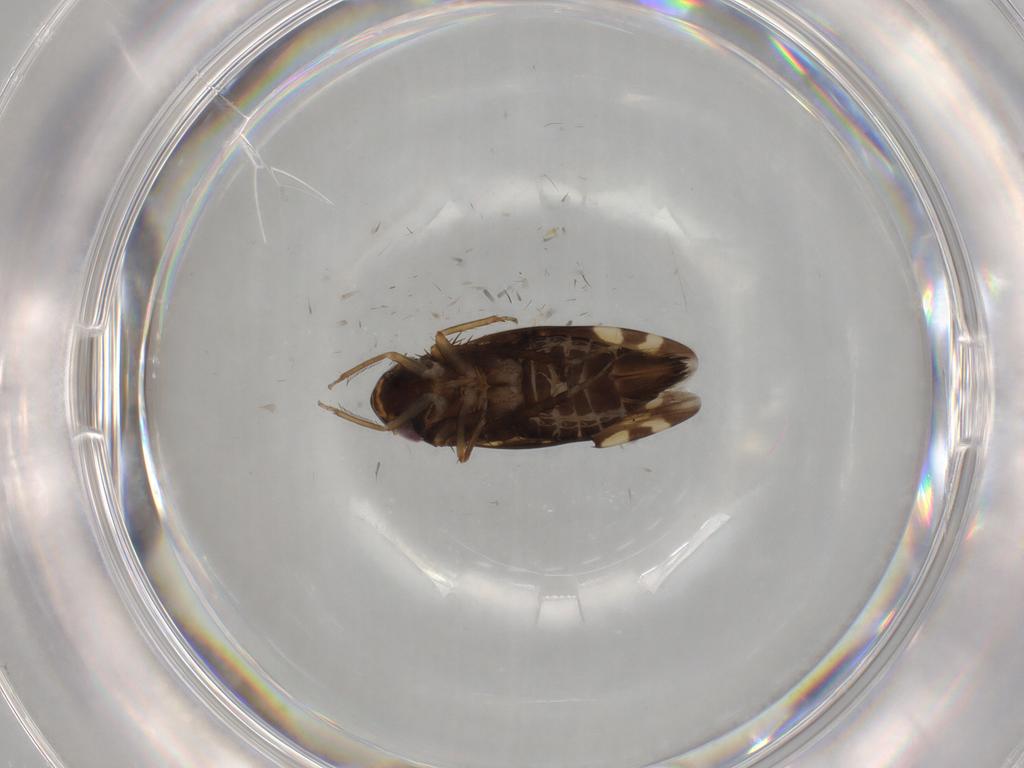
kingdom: Animalia
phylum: Arthropoda
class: Insecta
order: Hemiptera
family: Cicadellidae
